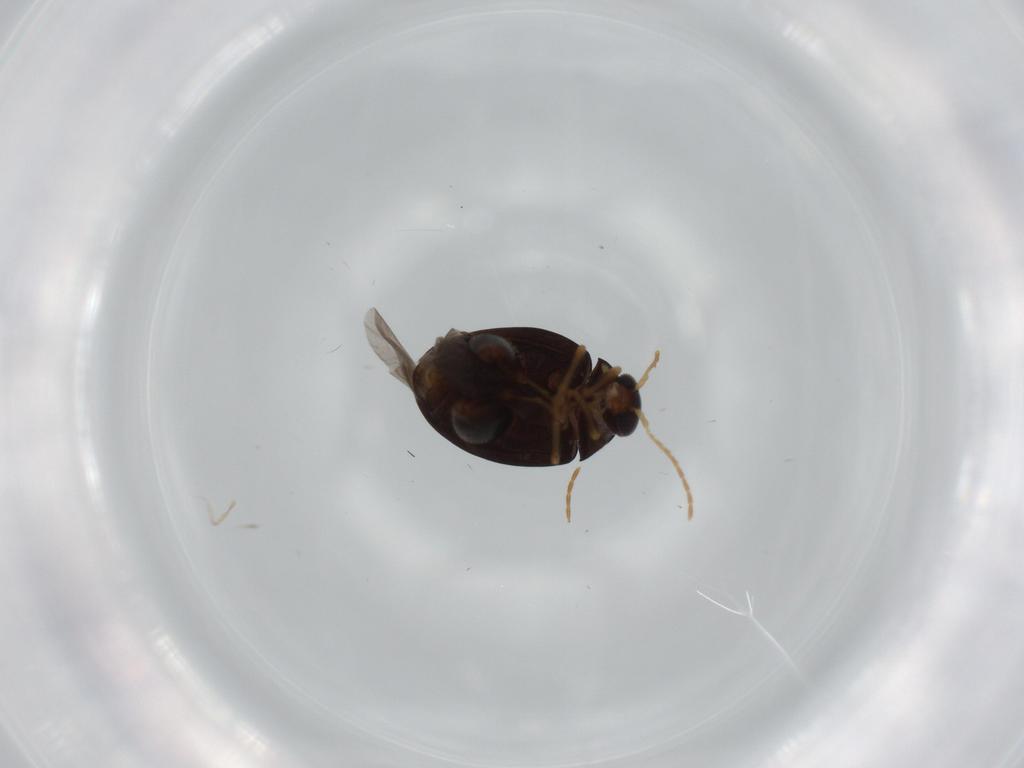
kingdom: Animalia
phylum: Arthropoda
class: Insecta
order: Coleoptera
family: Chrysomelidae
